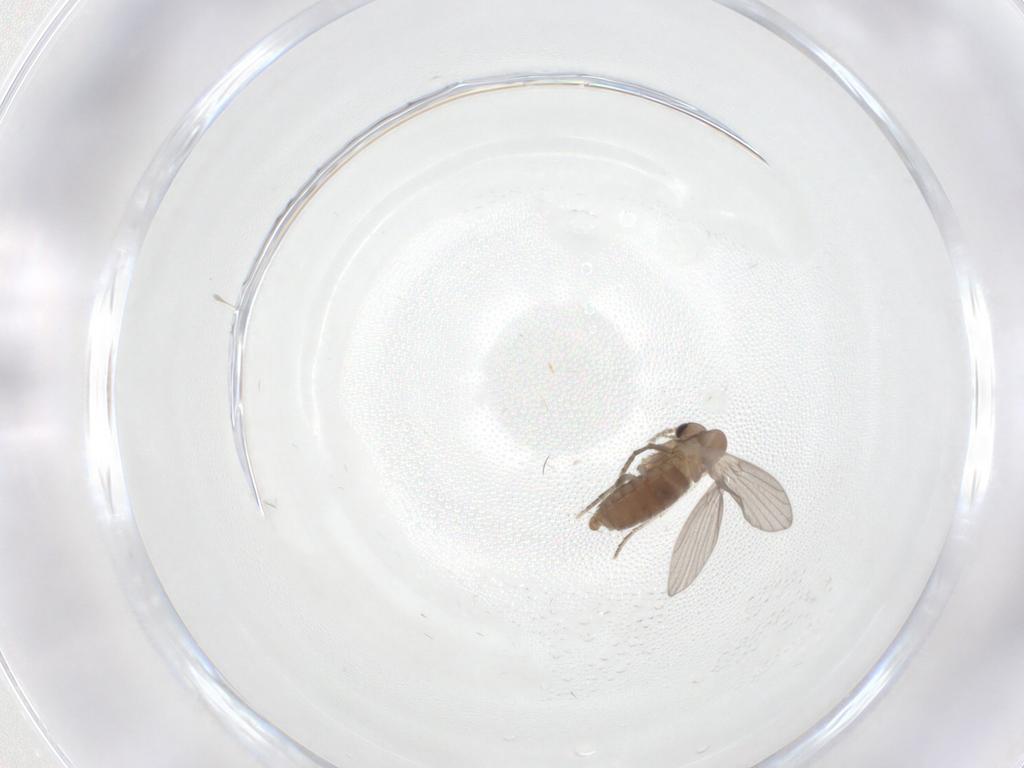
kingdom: Animalia
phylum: Arthropoda
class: Insecta
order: Diptera
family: Psychodidae
